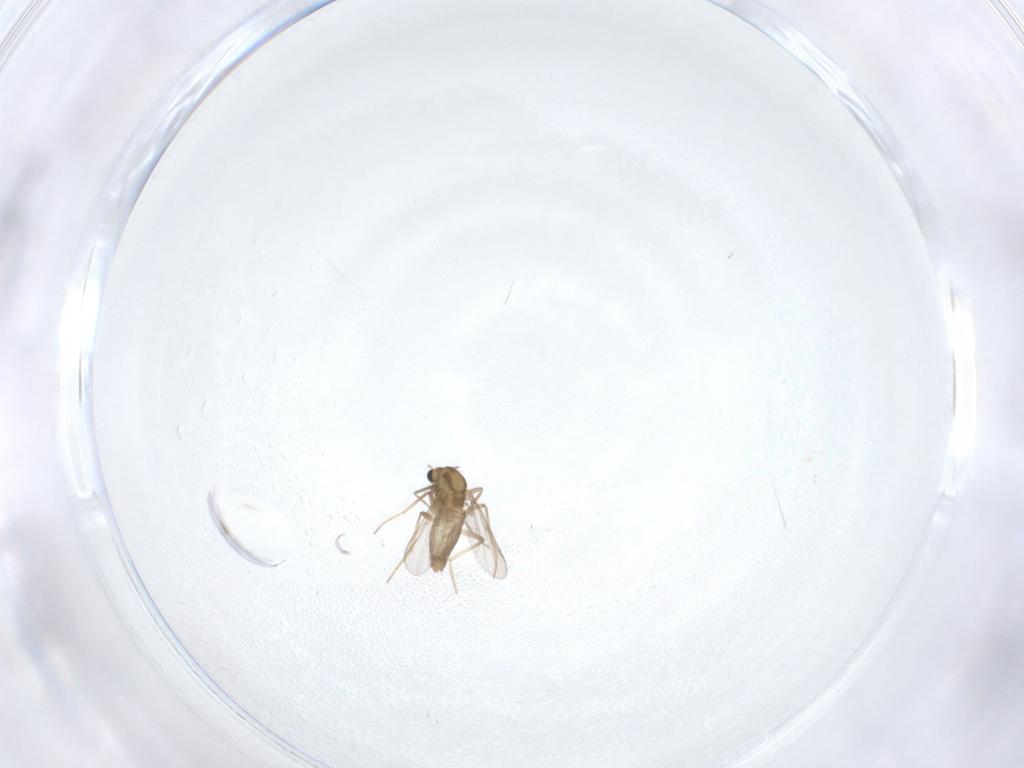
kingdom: Animalia
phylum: Arthropoda
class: Insecta
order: Diptera
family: Chironomidae
